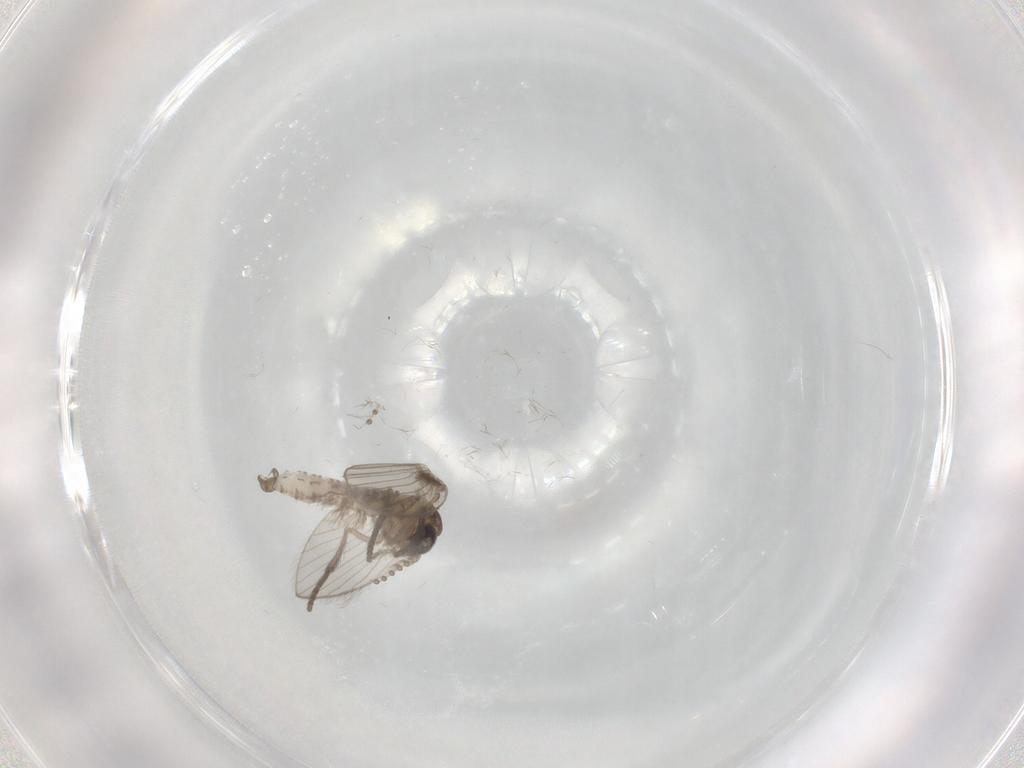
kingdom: Animalia
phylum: Arthropoda
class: Insecta
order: Diptera
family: Psychodidae
